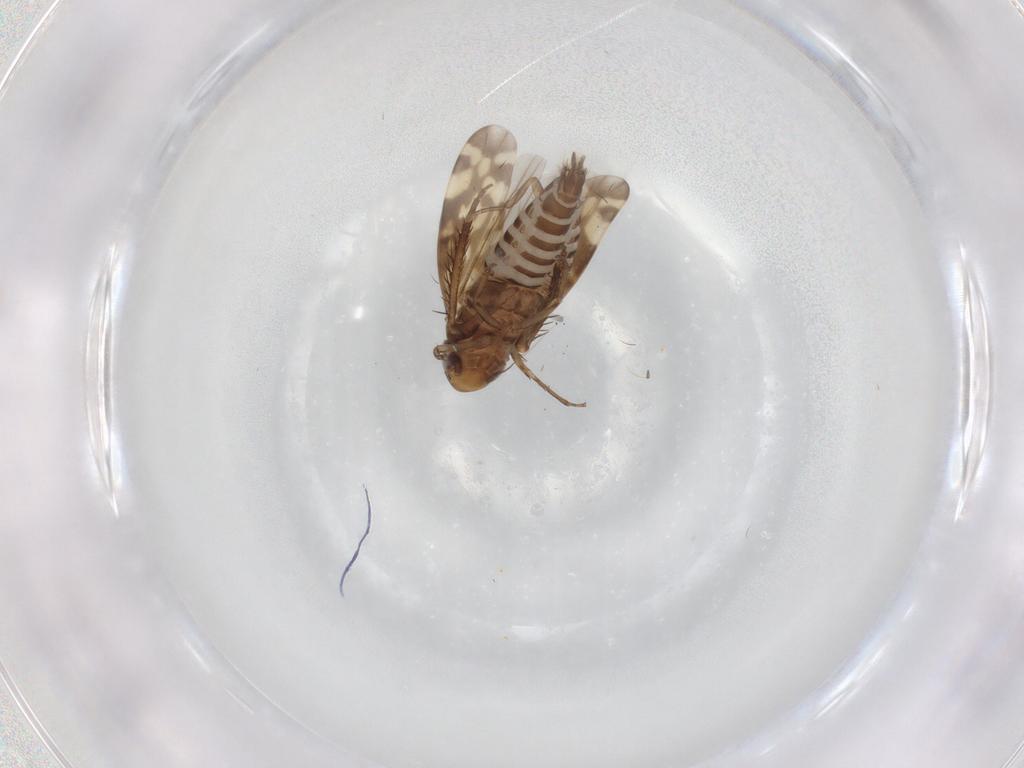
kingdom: Animalia
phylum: Arthropoda
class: Insecta
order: Hemiptera
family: Cicadellidae
